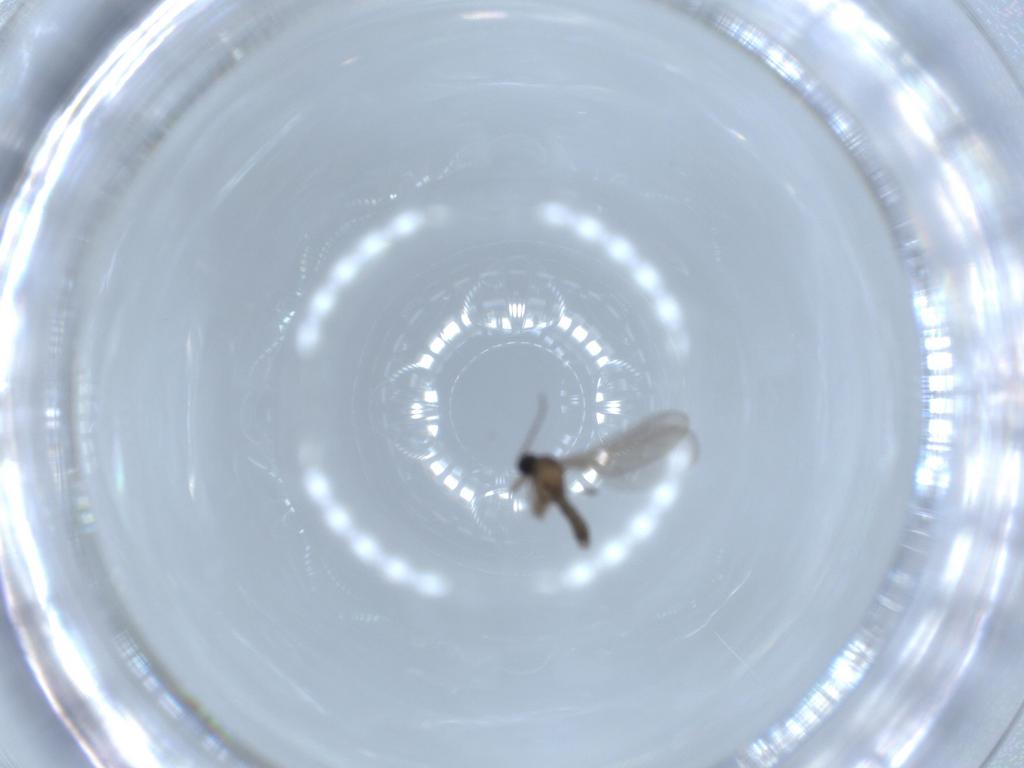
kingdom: Animalia
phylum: Arthropoda
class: Insecta
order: Diptera
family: Sciaridae
